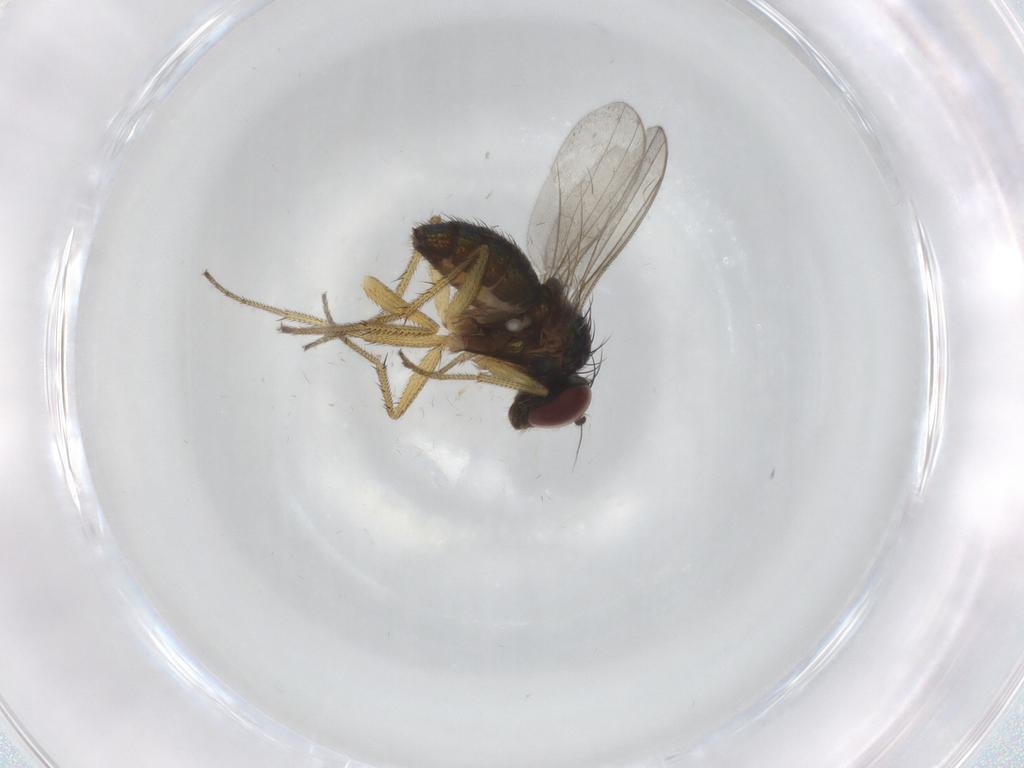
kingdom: Animalia
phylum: Arthropoda
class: Insecta
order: Diptera
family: Dolichopodidae
